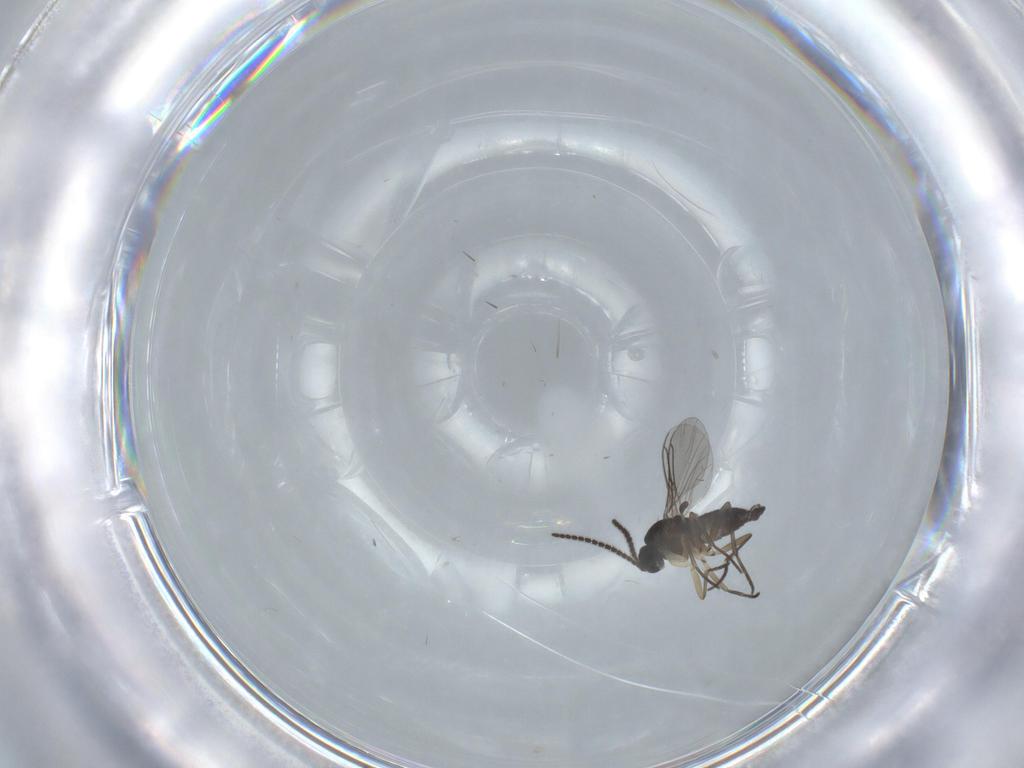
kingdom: Animalia
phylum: Arthropoda
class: Insecta
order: Diptera
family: Sciaridae
